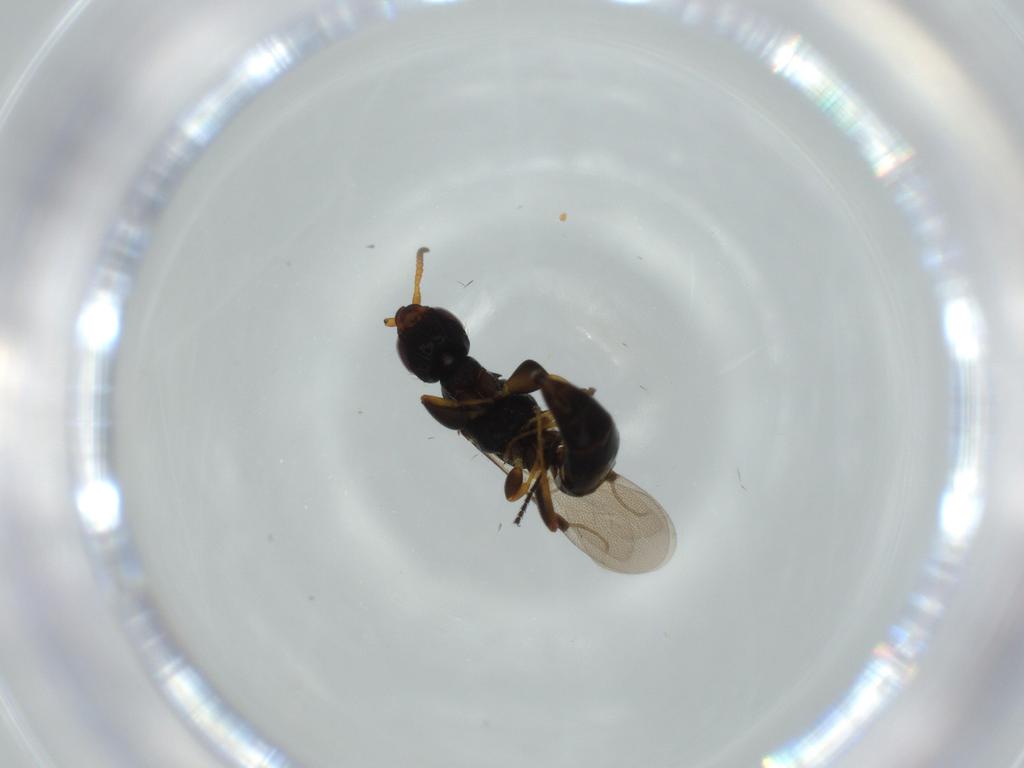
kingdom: Animalia
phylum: Arthropoda
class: Insecta
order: Hymenoptera
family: Bethylidae
